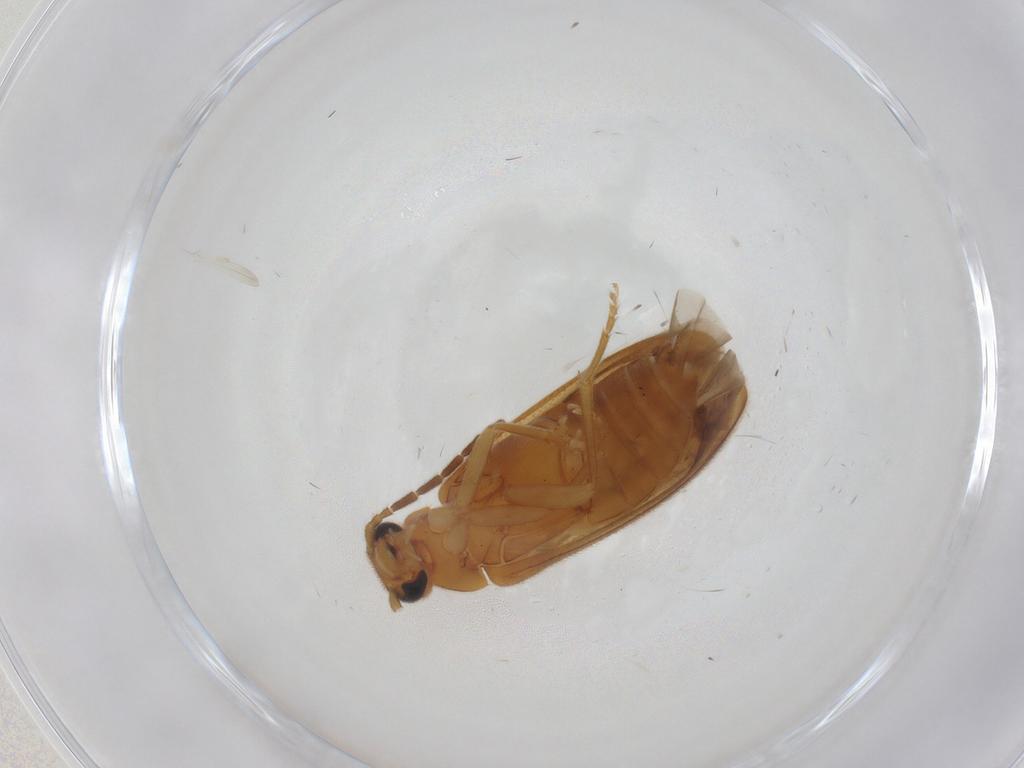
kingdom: Animalia
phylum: Arthropoda
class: Insecta
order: Coleoptera
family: Scraptiidae
